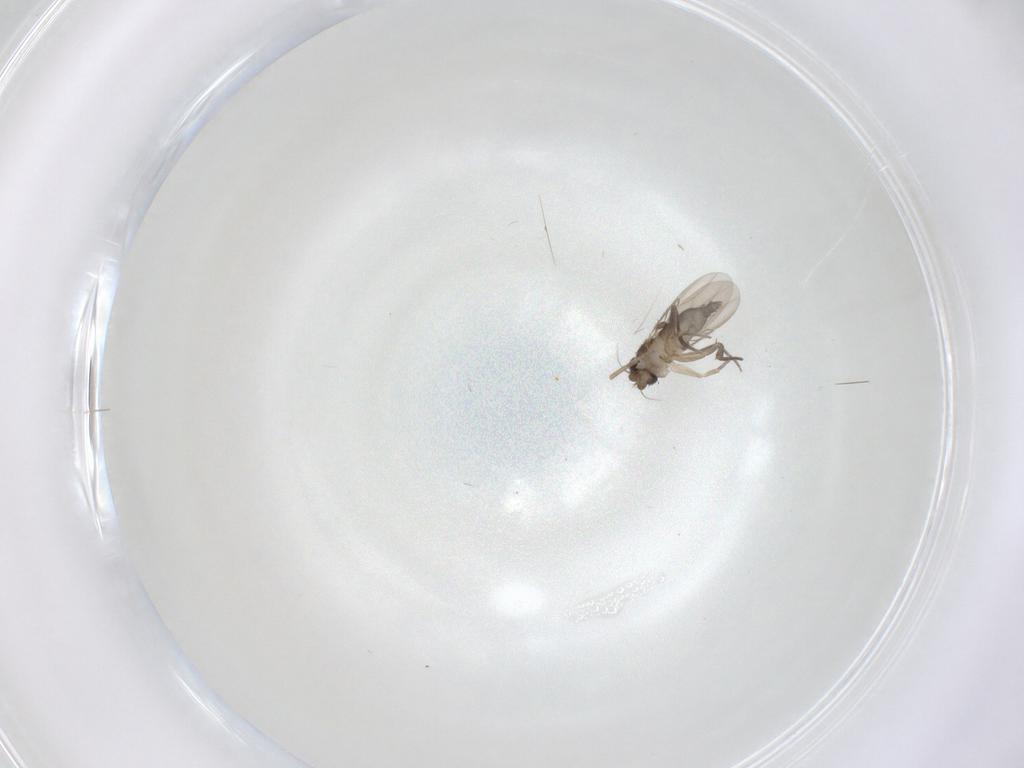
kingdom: Animalia
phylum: Arthropoda
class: Insecta
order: Diptera
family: Phoridae
